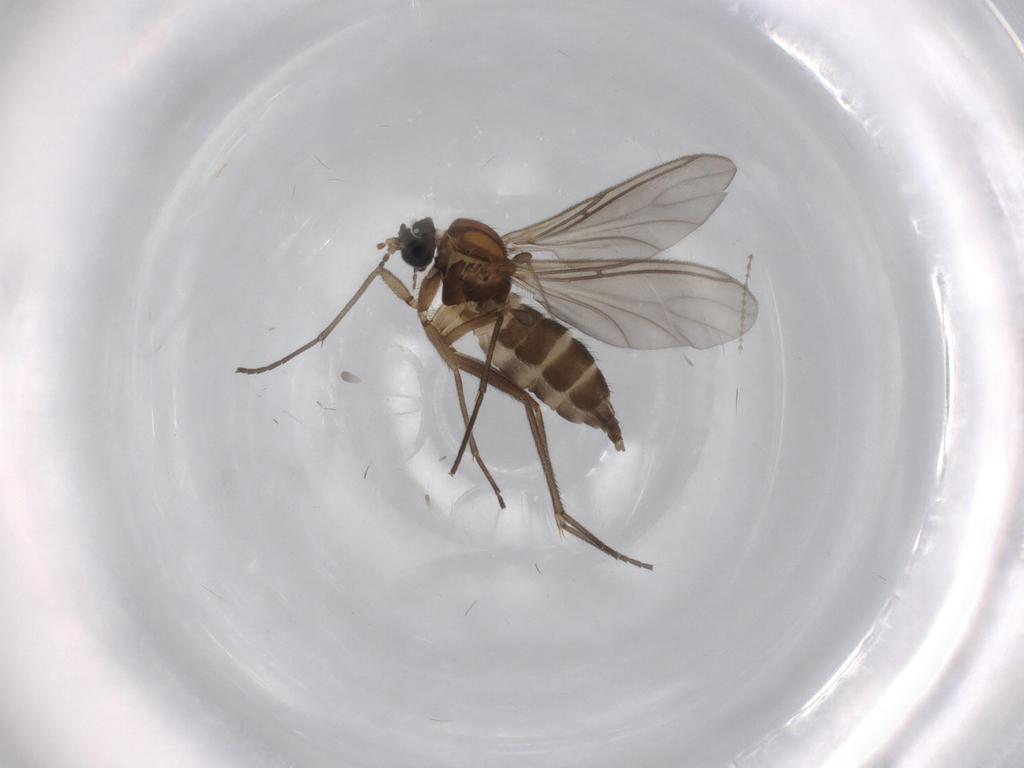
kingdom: Animalia
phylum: Arthropoda
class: Insecta
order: Diptera
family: Sciaridae
